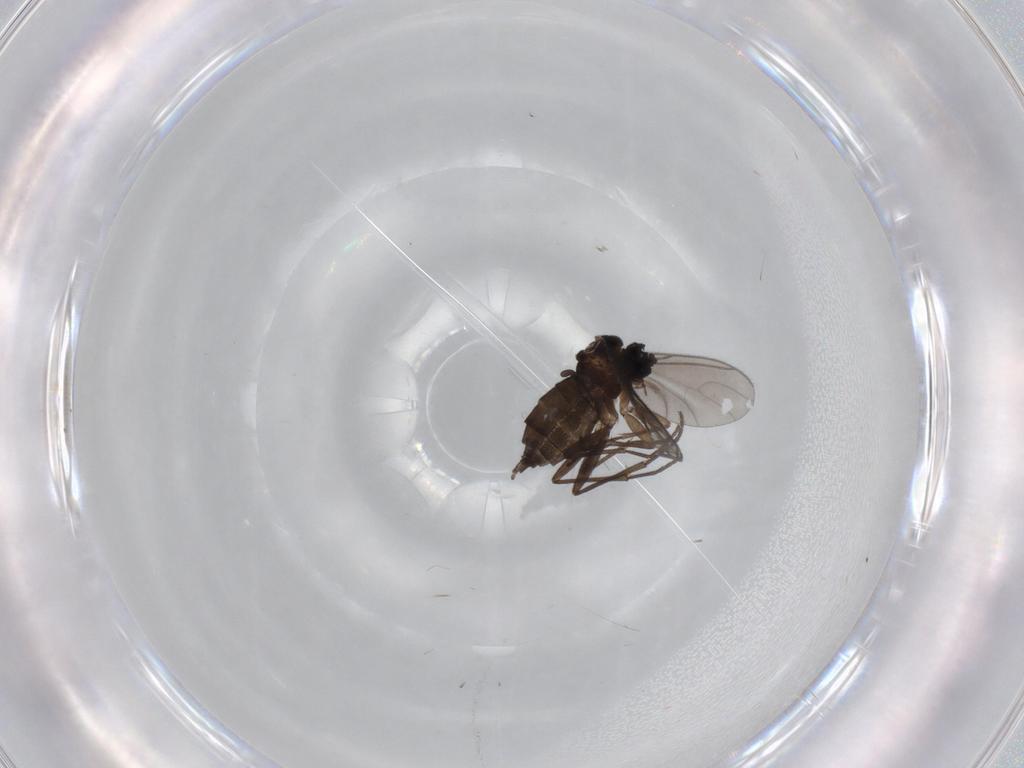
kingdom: Animalia
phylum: Arthropoda
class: Insecta
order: Diptera
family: Sciaridae
